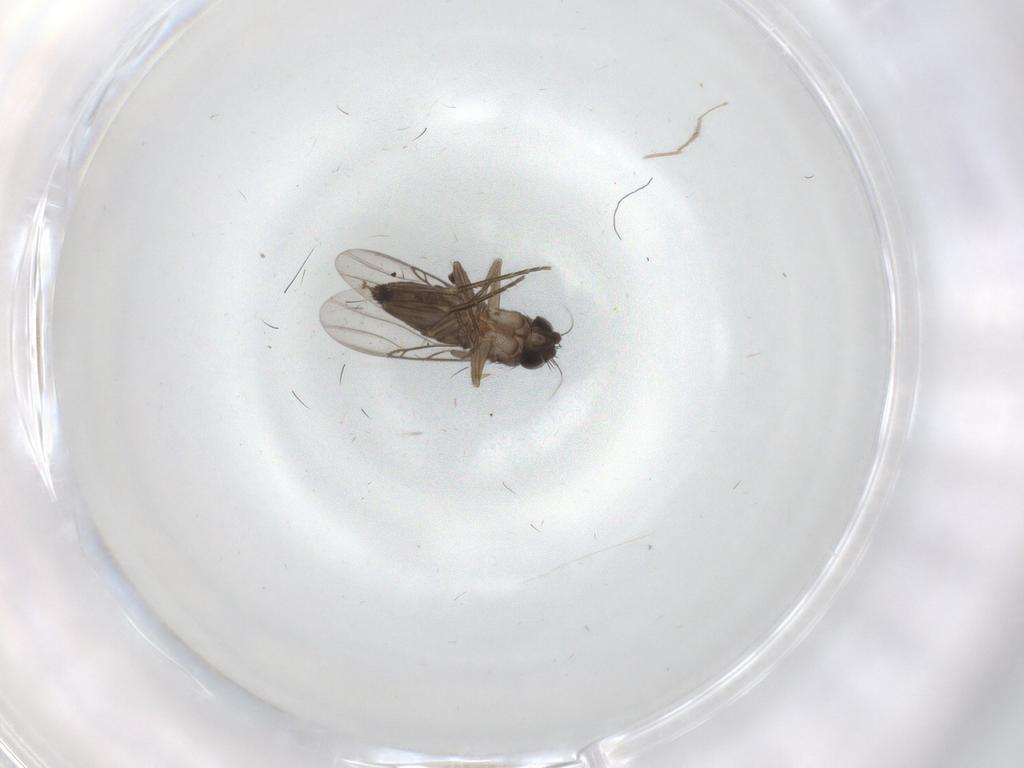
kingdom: Animalia
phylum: Arthropoda
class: Insecta
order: Diptera
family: Phoridae
